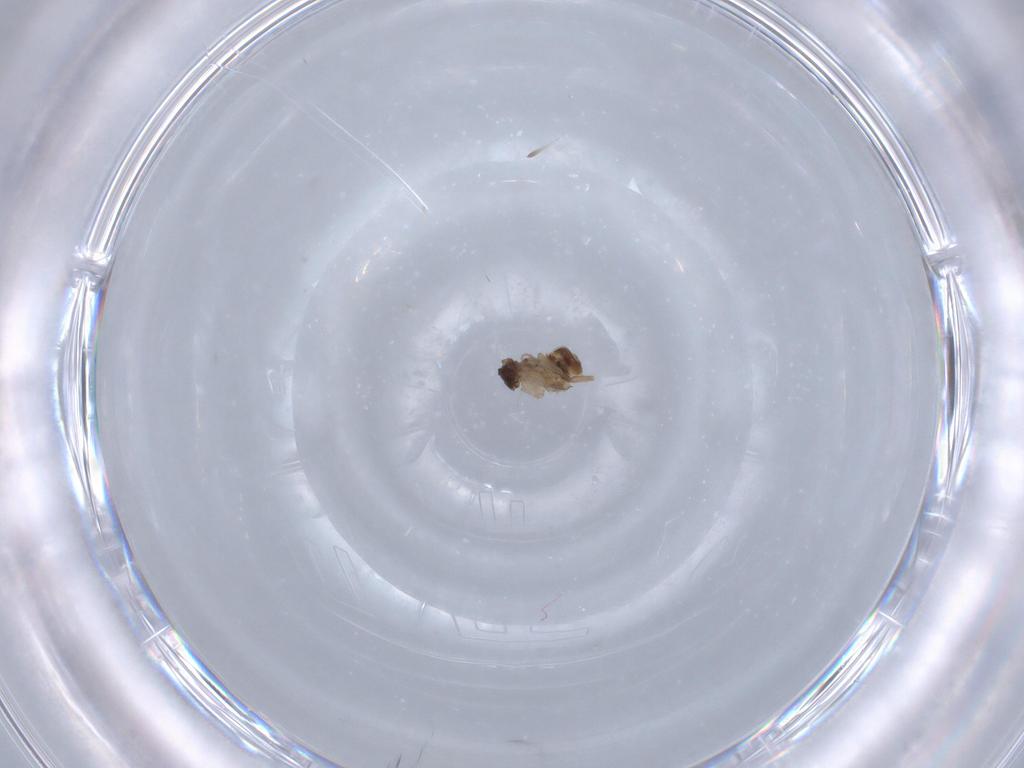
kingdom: Animalia
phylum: Arthropoda
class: Insecta
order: Diptera
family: Phoridae
